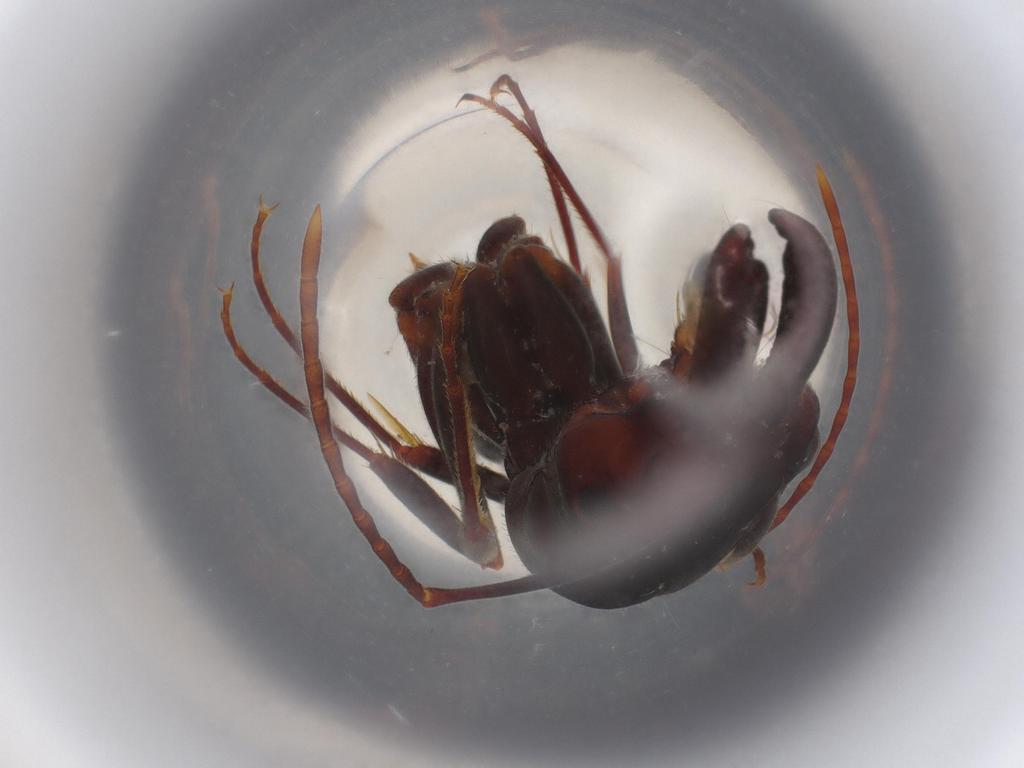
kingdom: Animalia
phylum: Arthropoda
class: Insecta
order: Hymenoptera
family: Formicidae
